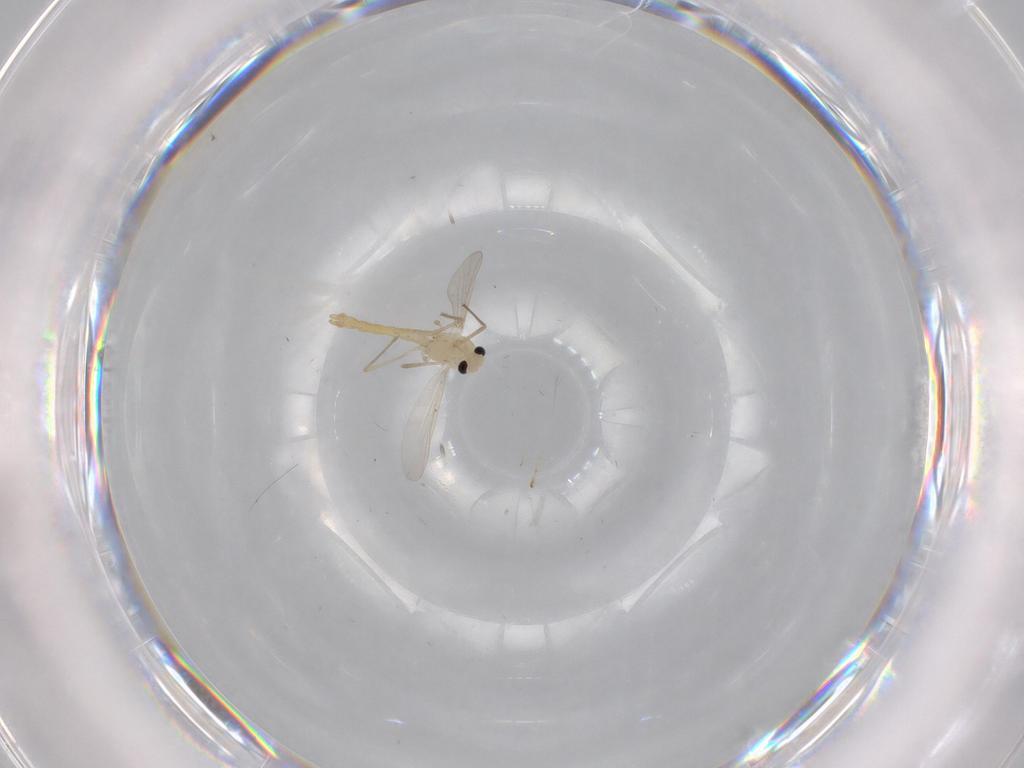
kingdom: Animalia
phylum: Arthropoda
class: Insecta
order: Diptera
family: Chironomidae
